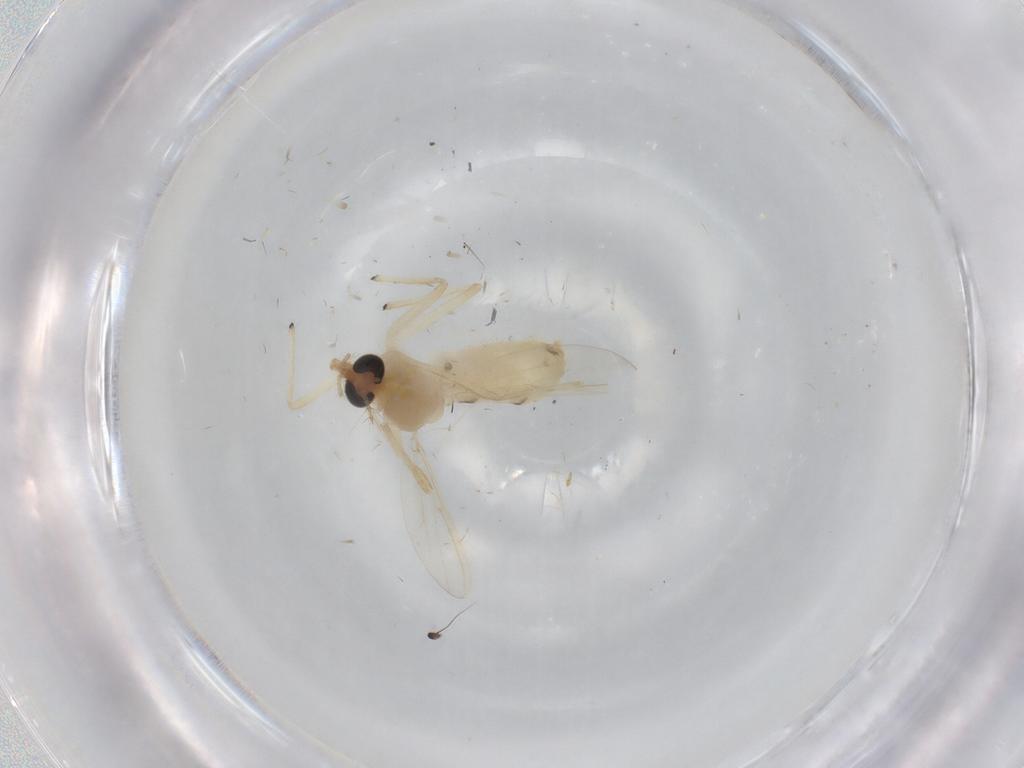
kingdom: Animalia
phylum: Arthropoda
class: Insecta
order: Diptera
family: Chironomidae
